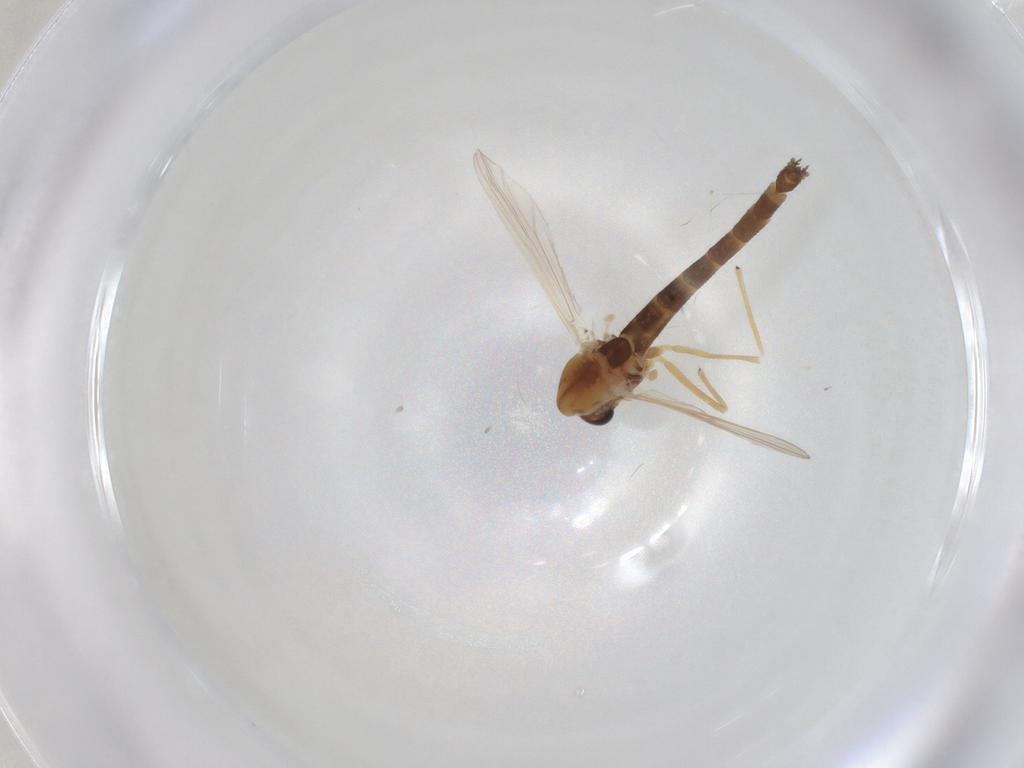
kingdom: Animalia
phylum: Arthropoda
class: Insecta
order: Diptera
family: Chironomidae
